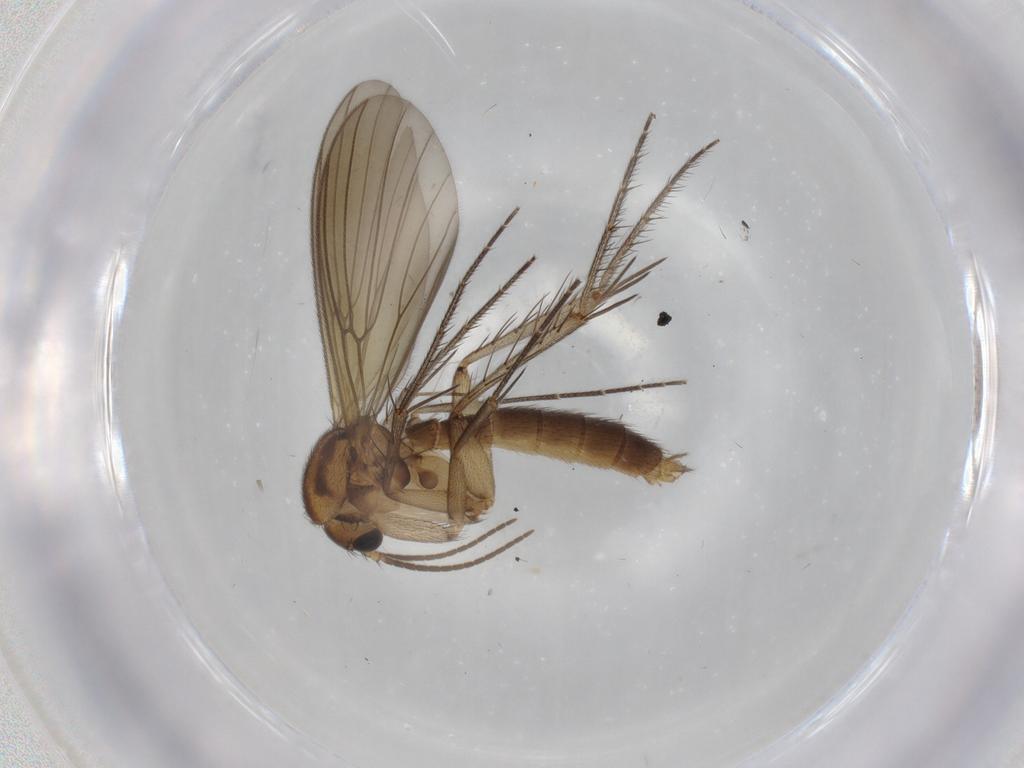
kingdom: Animalia
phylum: Arthropoda
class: Insecta
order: Diptera
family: Mycetophilidae
